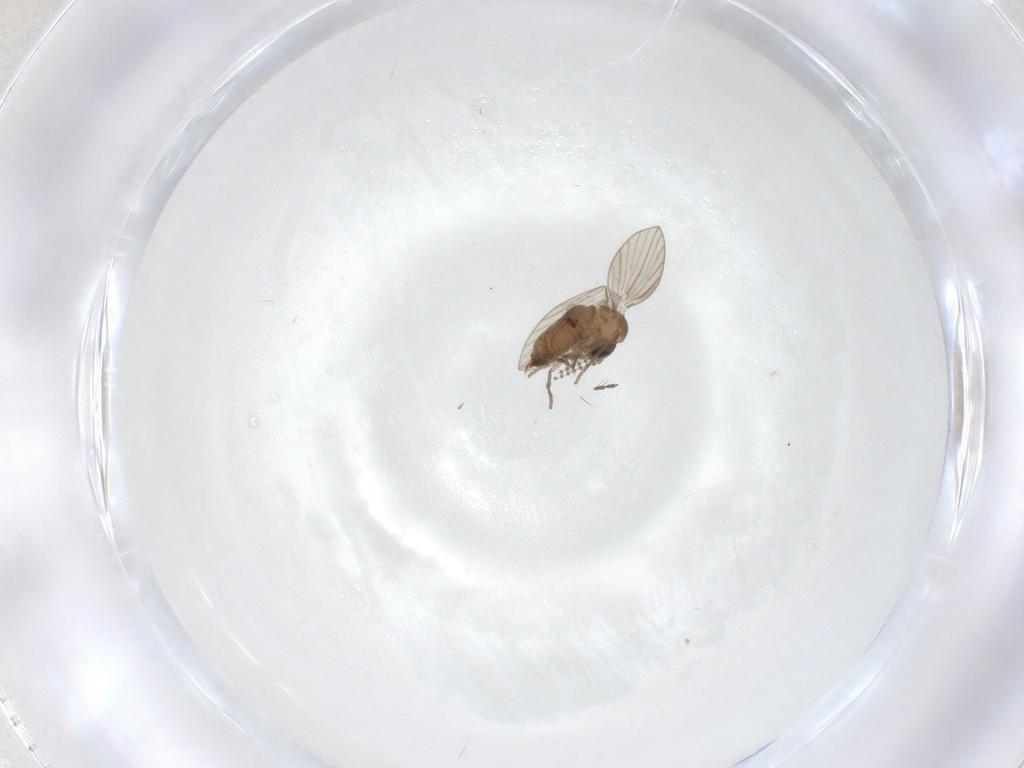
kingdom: Animalia
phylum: Arthropoda
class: Insecta
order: Diptera
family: Psychodidae
